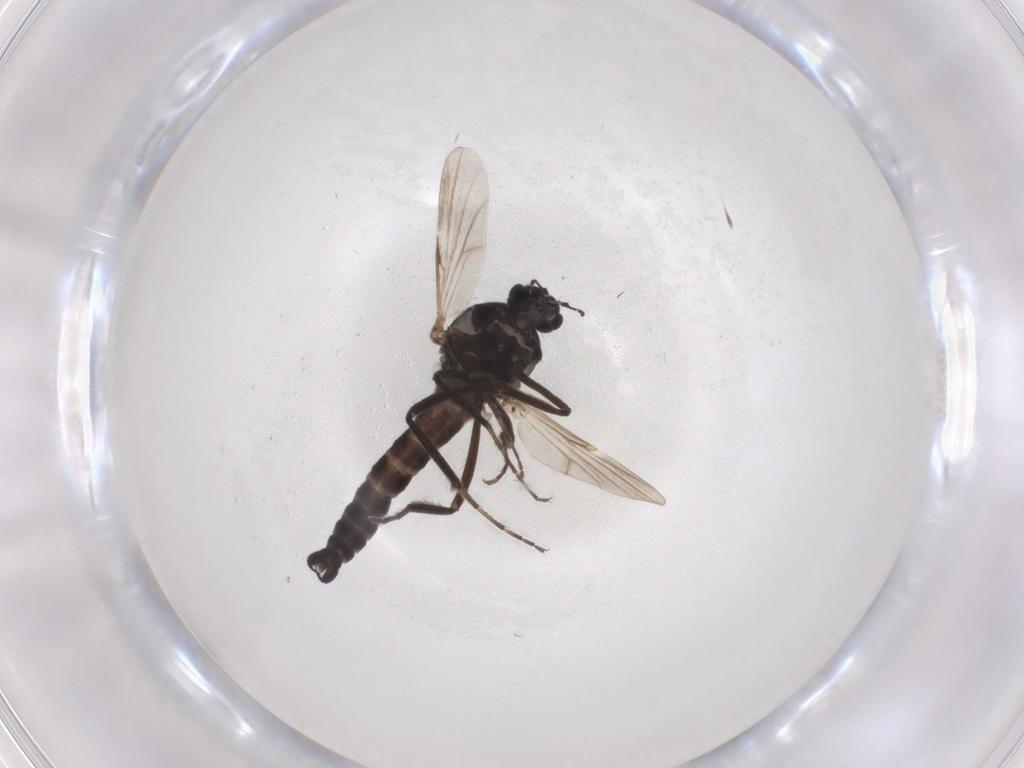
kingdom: Animalia
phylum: Arthropoda
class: Insecta
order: Diptera
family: Ceratopogonidae
